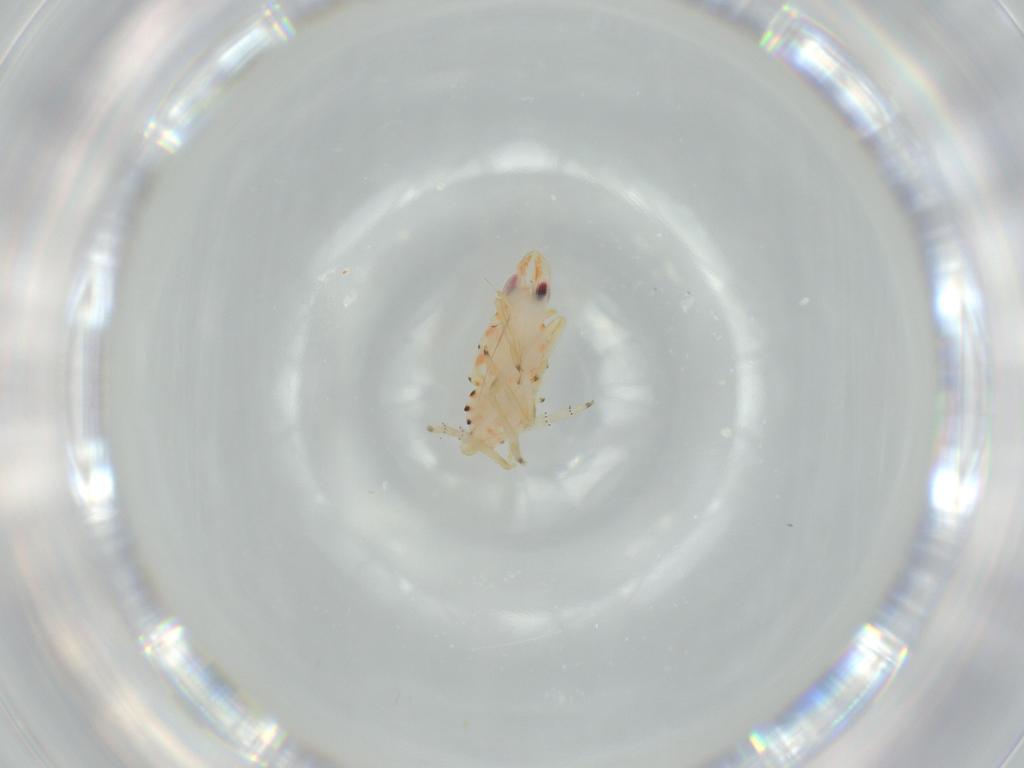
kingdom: Animalia
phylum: Arthropoda
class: Insecta
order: Hemiptera
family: Tropiduchidae
